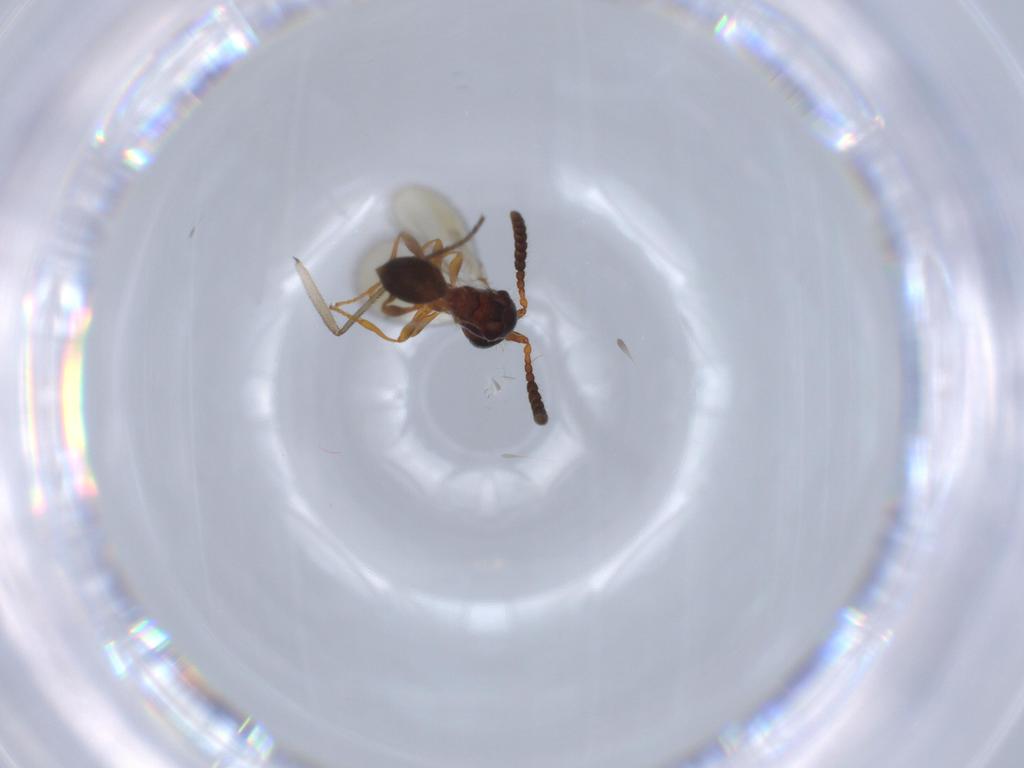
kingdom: Animalia
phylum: Arthropoda
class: Insecta
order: Hymenoptera
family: Diapriidae
